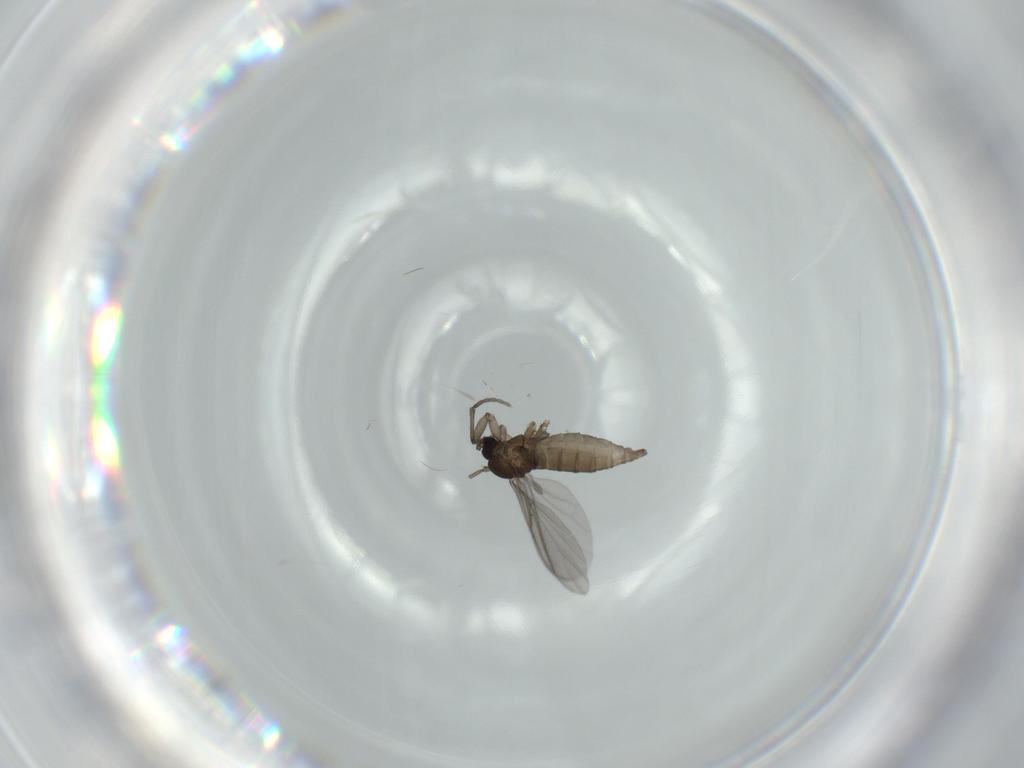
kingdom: Animalia
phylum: Arthropoda
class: Insecta
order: Diptera
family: Sciaridae
